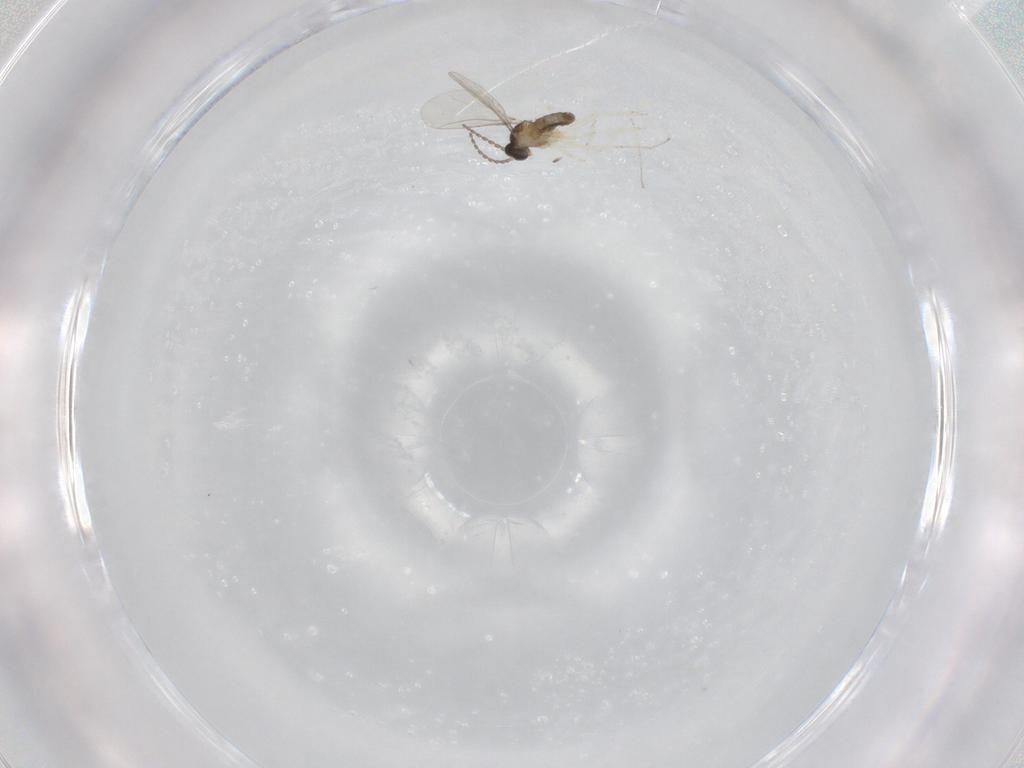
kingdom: Animalia
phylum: Arthropoda
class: Insecta
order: Diptera
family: Cecidomyiidae
